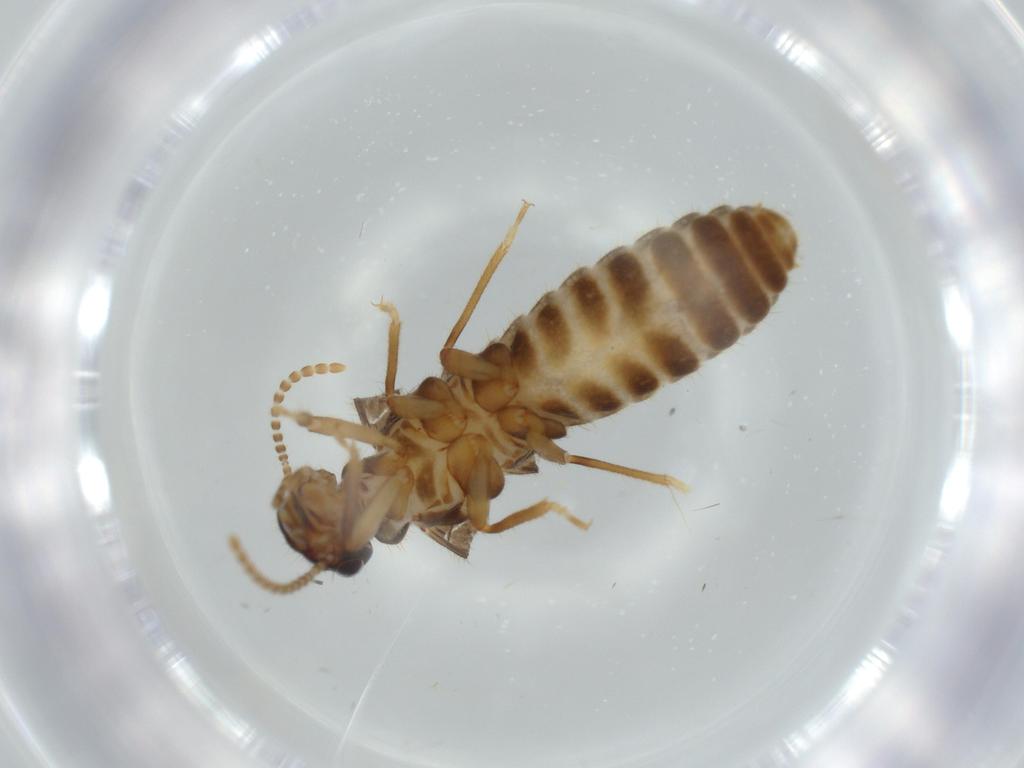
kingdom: Animalia
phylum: Arthropoda
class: Insecta
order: Blattodea
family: Termitidae
